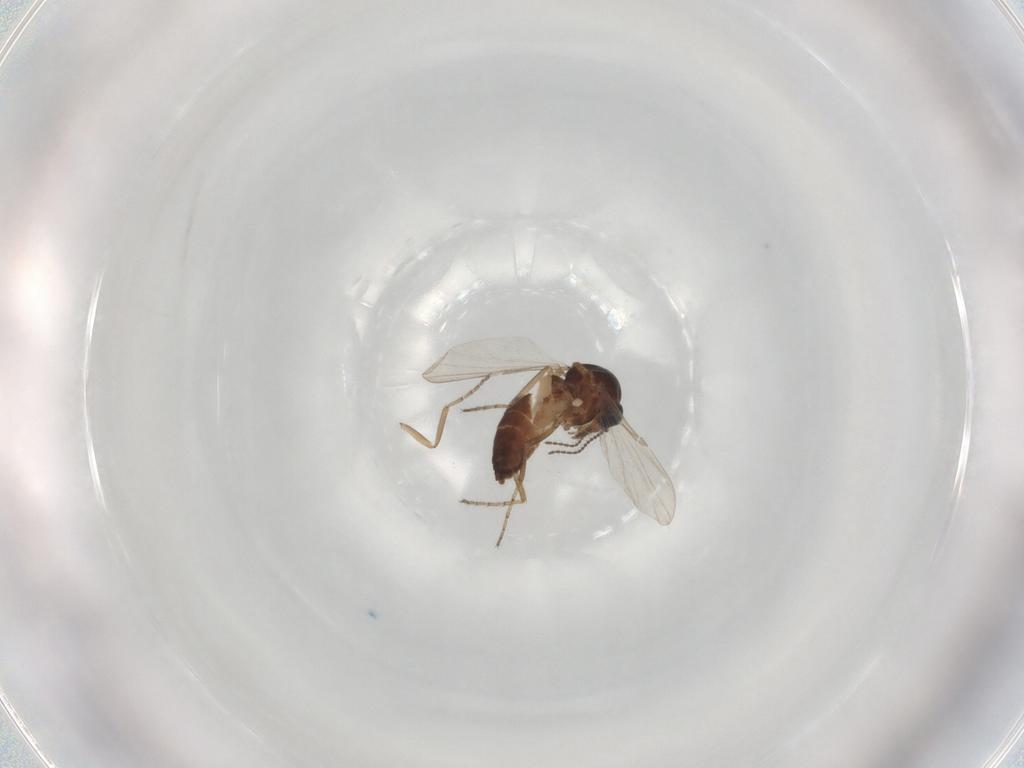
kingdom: Animalia
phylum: Arthropoda
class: Insecta
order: Diptera
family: Ceratopogonidae
